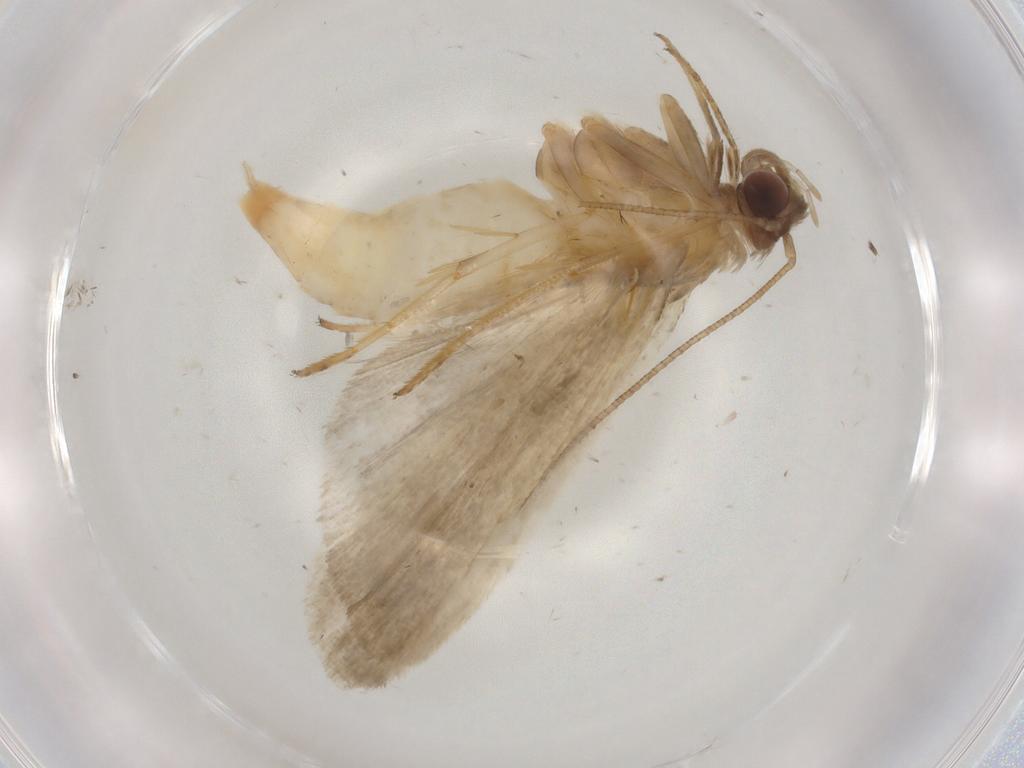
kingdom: Animalia
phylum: Arthropoda
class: Insecta
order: Lepidoptera
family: Noctuidae
